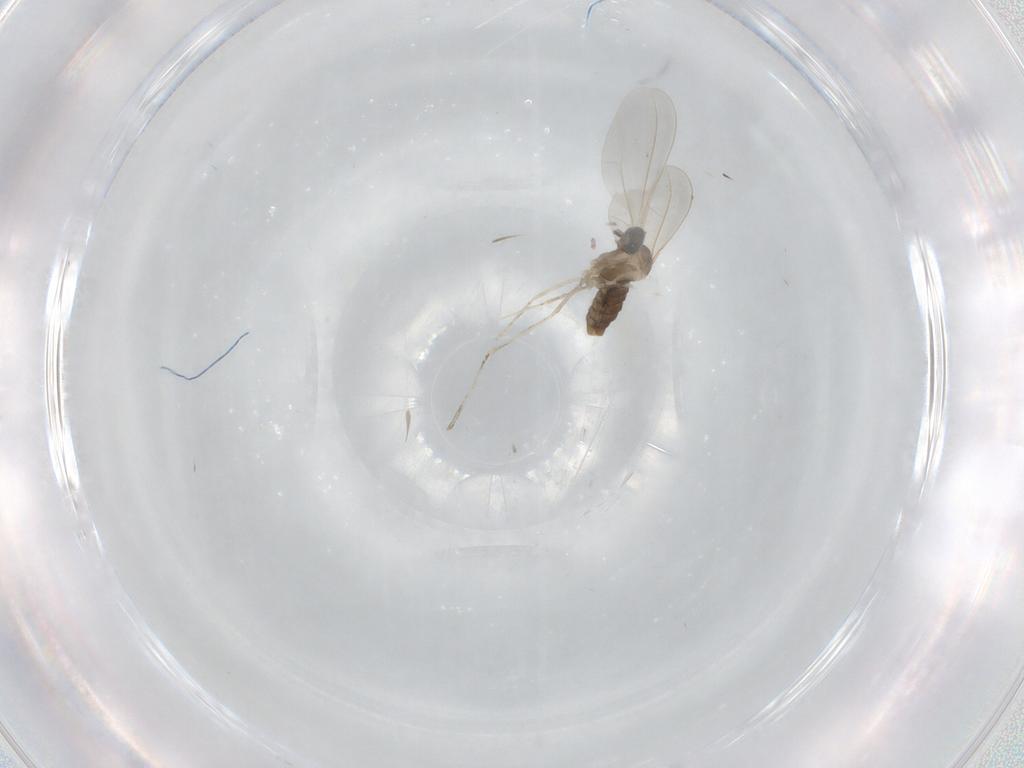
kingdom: Animalia
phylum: Arthropoda
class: Insecta
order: Diptera
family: Cecidomyiidae
